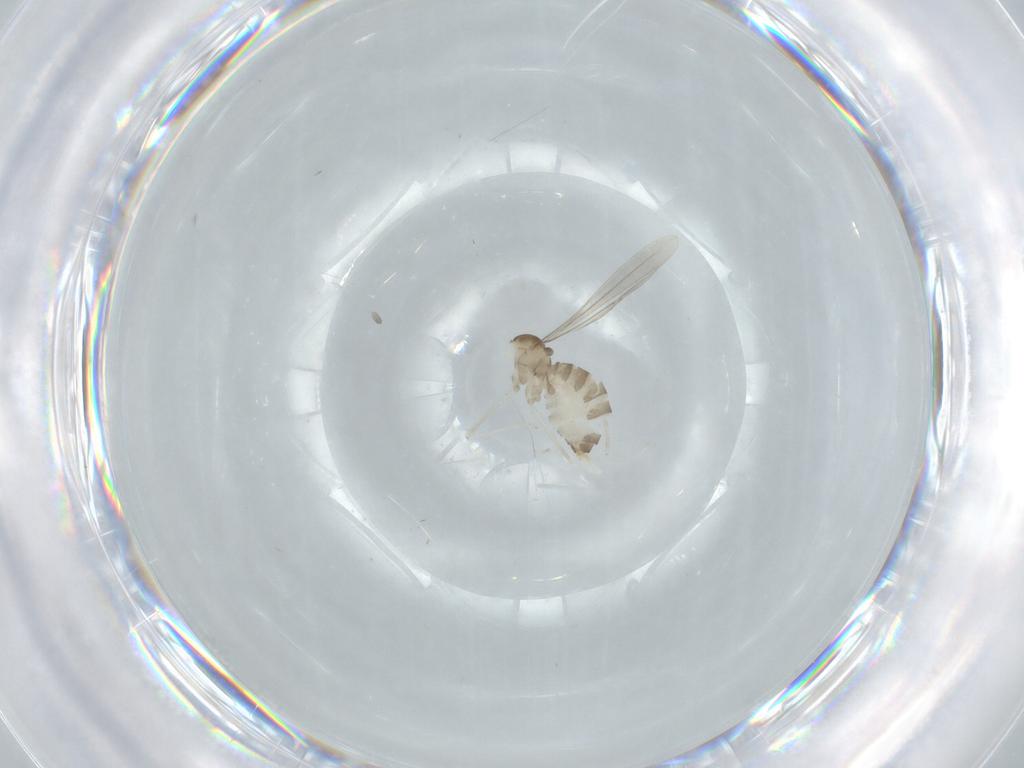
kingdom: Animalia
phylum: Arthropoda
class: Insecta
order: Diptera
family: Cecidomyiidae
